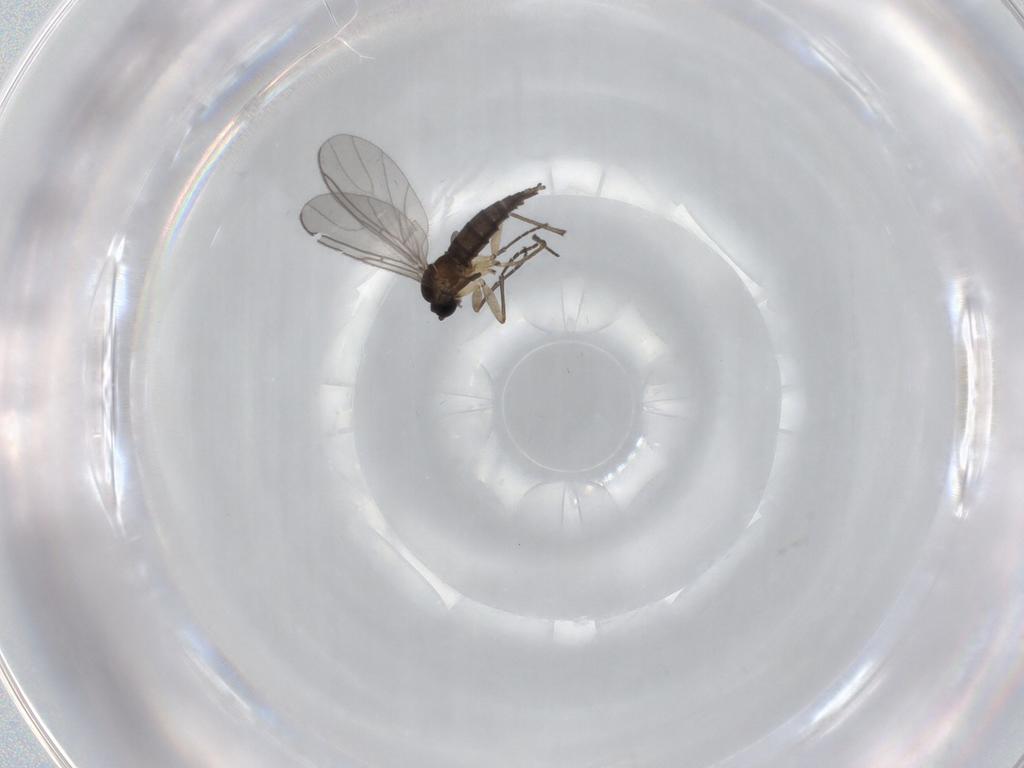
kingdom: Animalia
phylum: Arthropoda
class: Insecta
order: Diptera
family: Sciaridae
